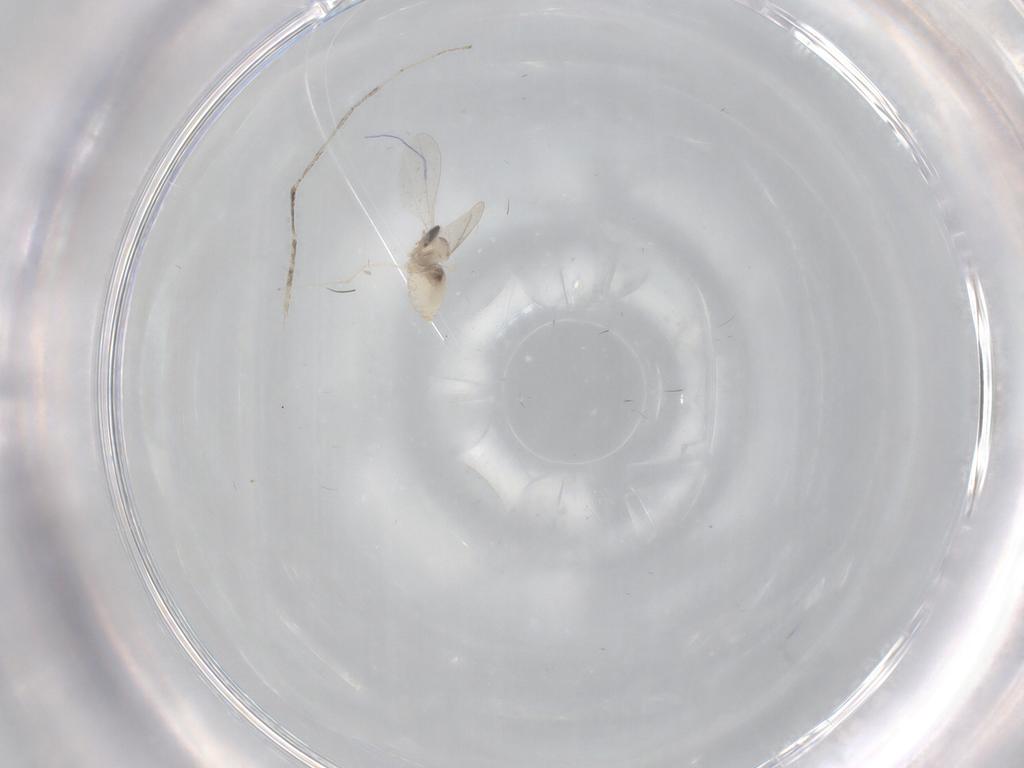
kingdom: Animalia
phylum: Arthropoda
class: Insecta
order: Diptera
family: Cecidomyiidae
